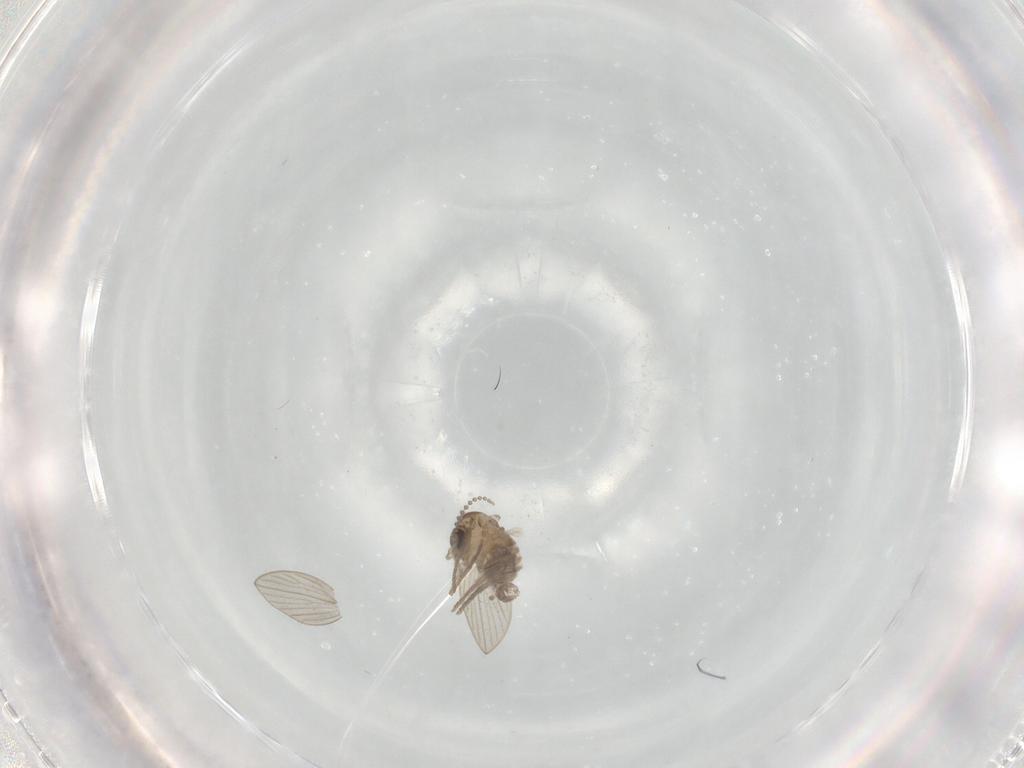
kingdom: Animalia
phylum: Arthropoda
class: Insecta
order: Diptera
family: Psychodidae
